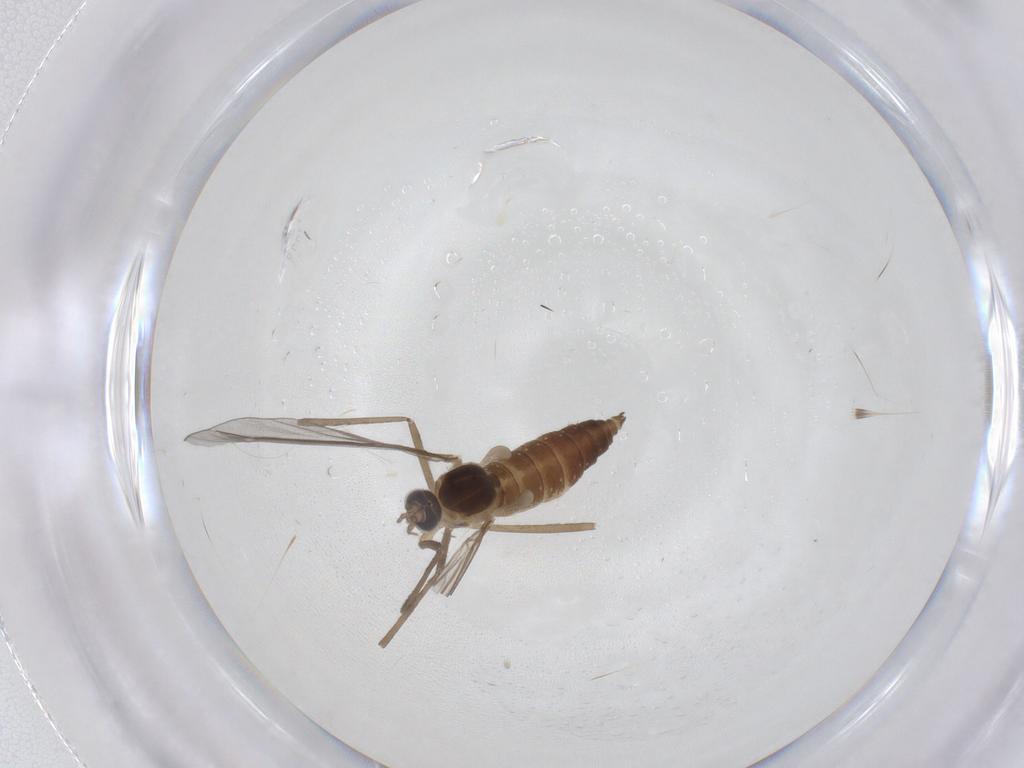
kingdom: Animalia
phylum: Arthropoda
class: Insecta
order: Diptera
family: Cecidomyiidae
